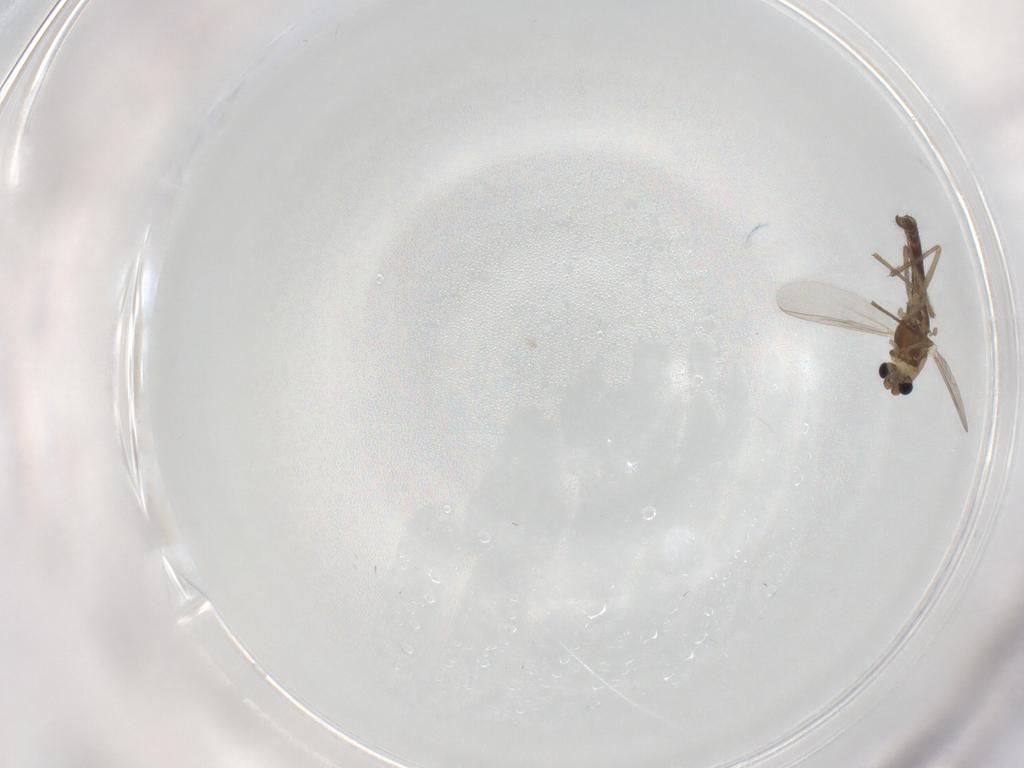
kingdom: Animalia
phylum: Arthropoda
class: Insecta
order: Diptera
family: Chironomidae
